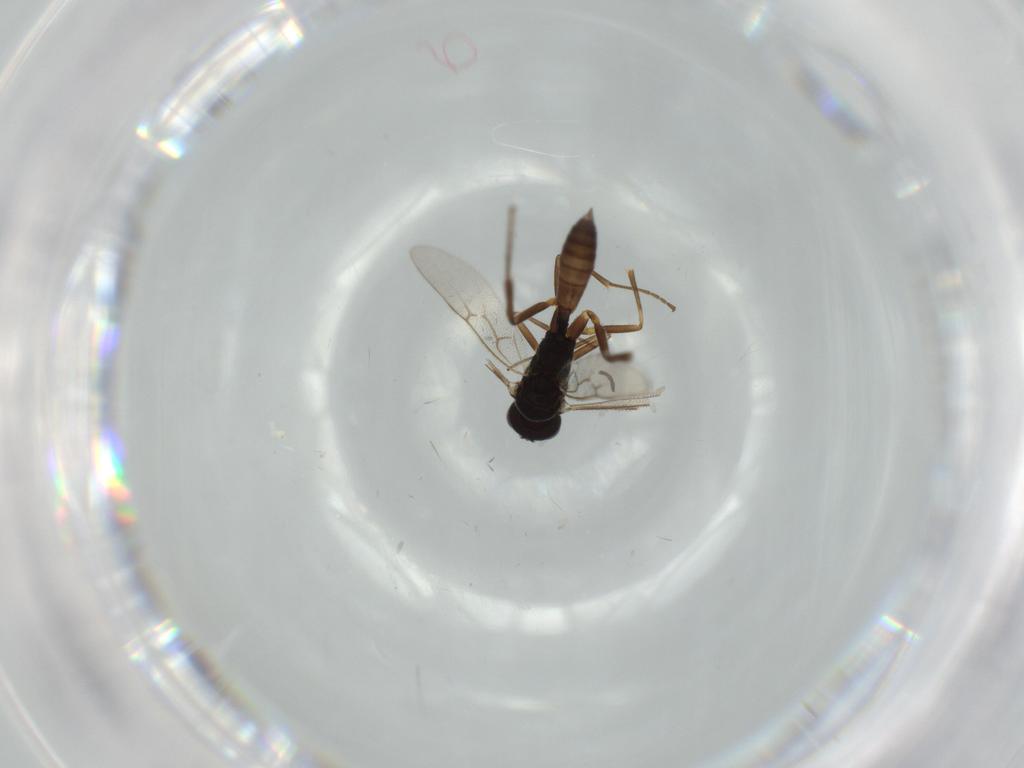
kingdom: Animalia
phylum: Arthropoda
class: Insecta
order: Hymenoptera
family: Ichneumonidae
